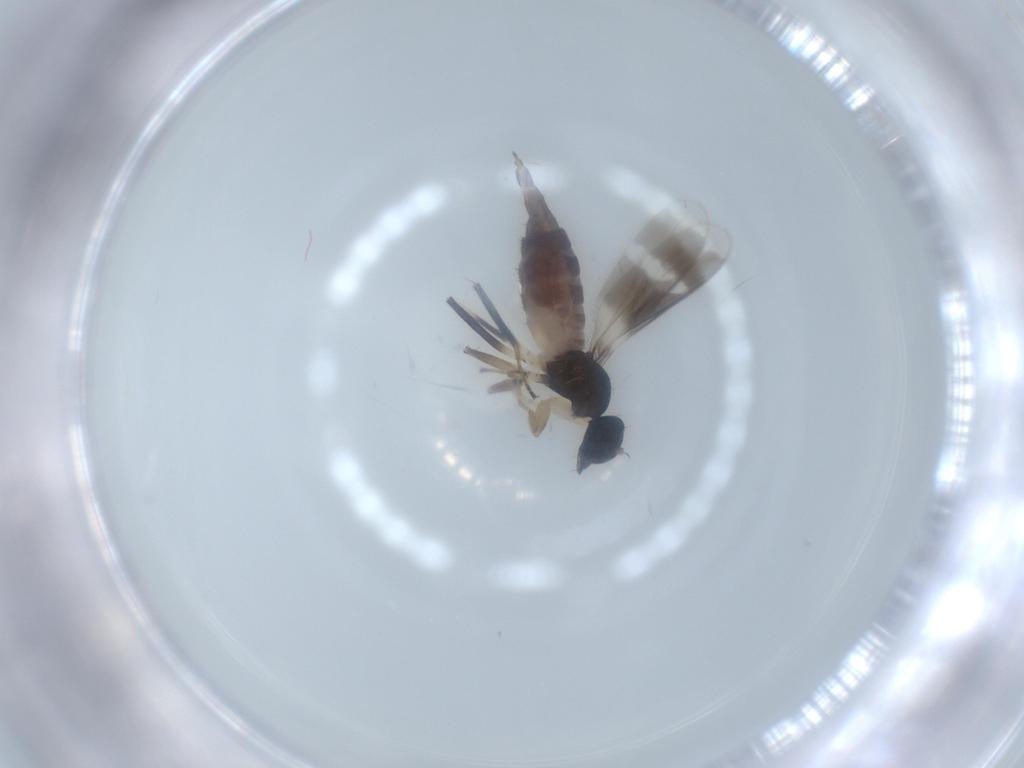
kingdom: Animalia
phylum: Arthropoda
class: Insecta
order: Diptera
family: Hybotidae
